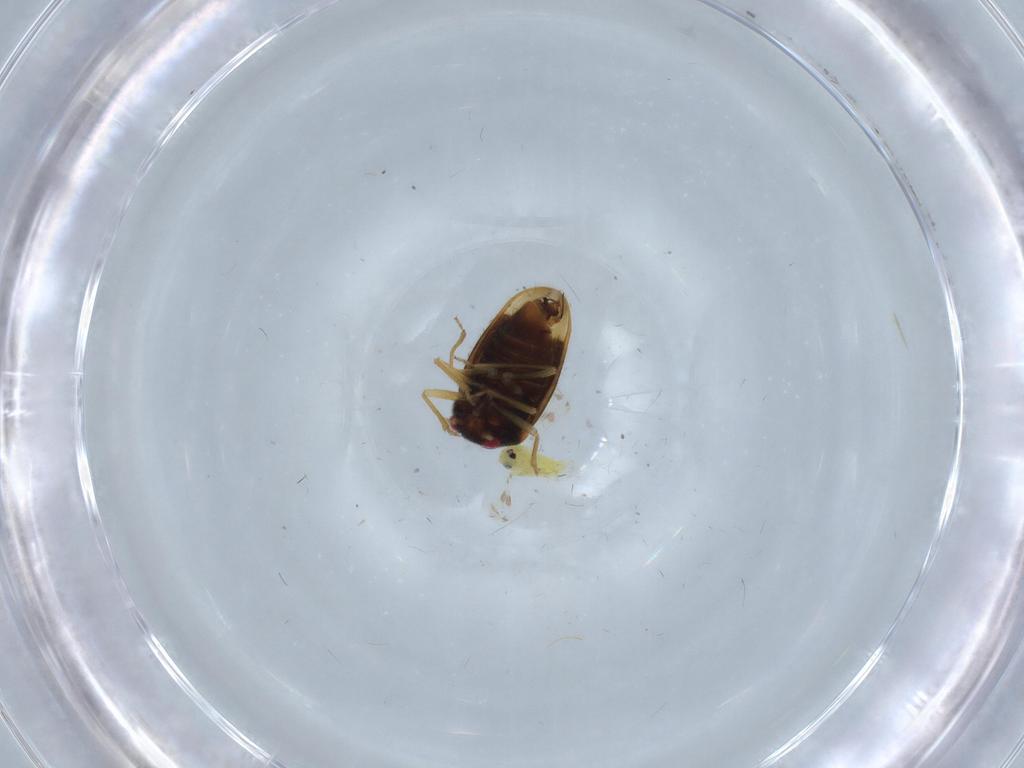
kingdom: Animalia
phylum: Arthropoda
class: Insecta
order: Hemiptera
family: Schizopteridae
